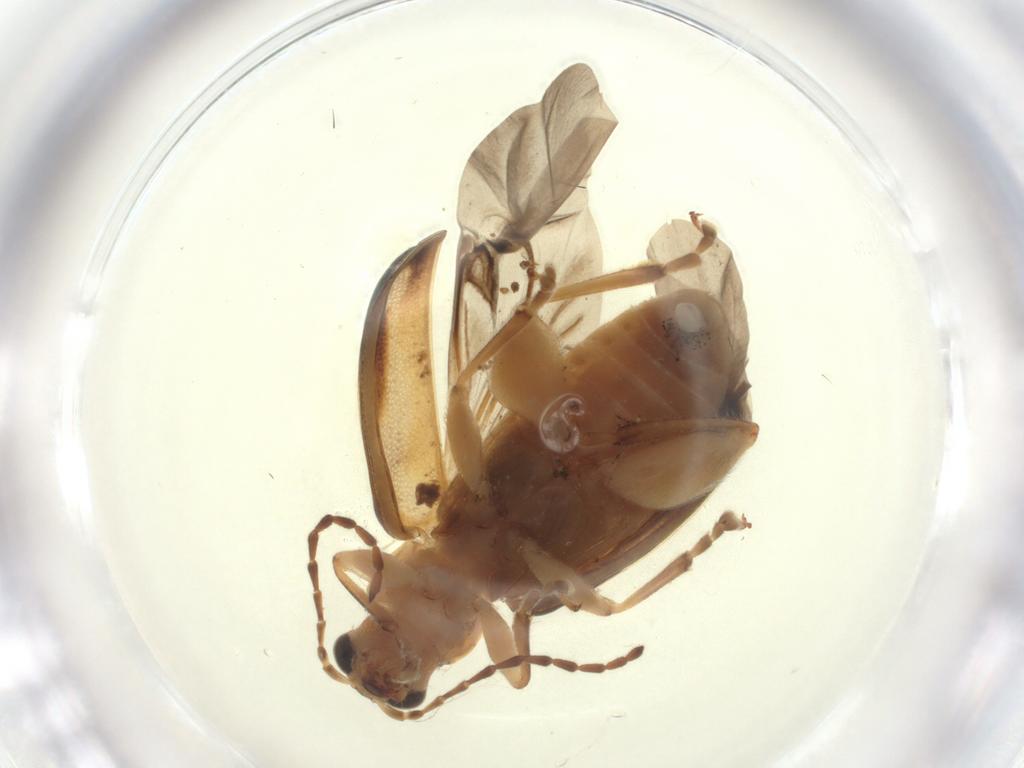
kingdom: Animalia
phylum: Arthropoda
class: Insecta
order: Coleoptera
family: Chrysomelidae
